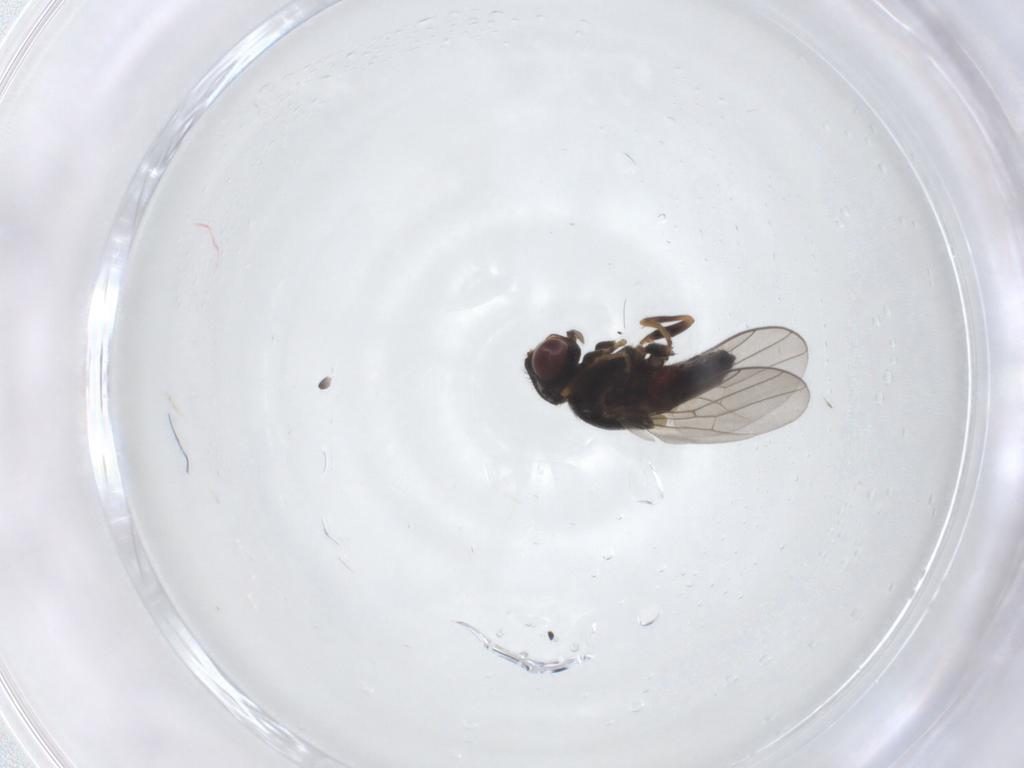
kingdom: Animalia
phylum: Arthropoda
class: Insecta
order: Diptera
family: Chloropidae
